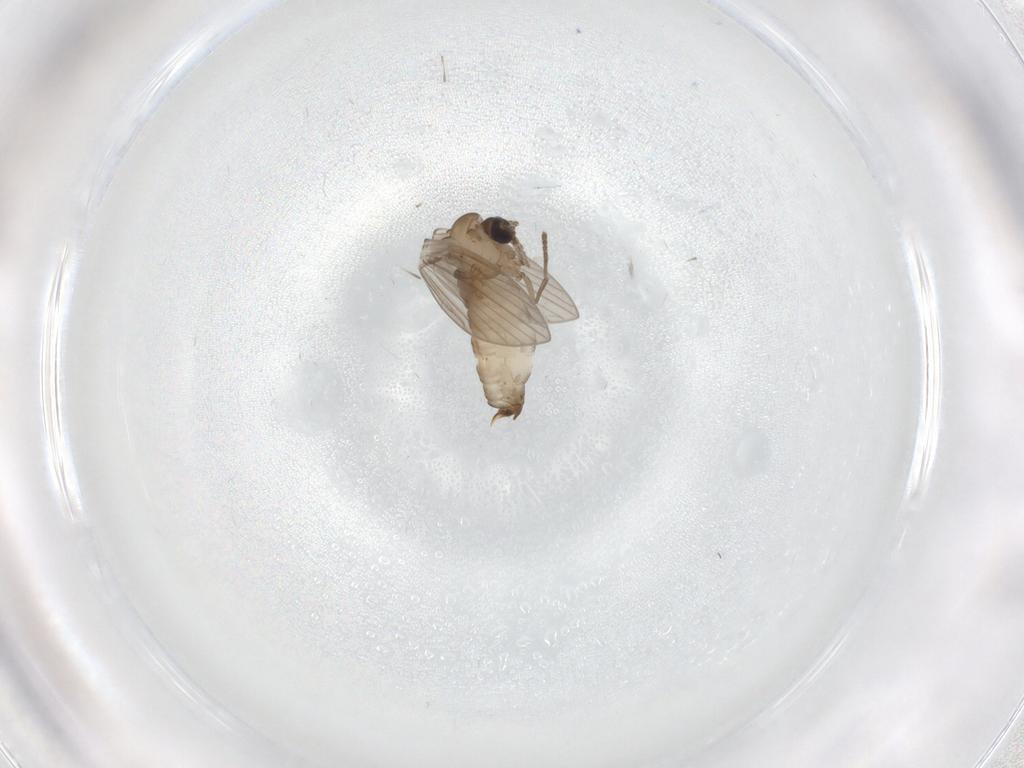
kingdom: Animalia
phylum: Arthropoda
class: Insecta
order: Diptera
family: Psychodidae
